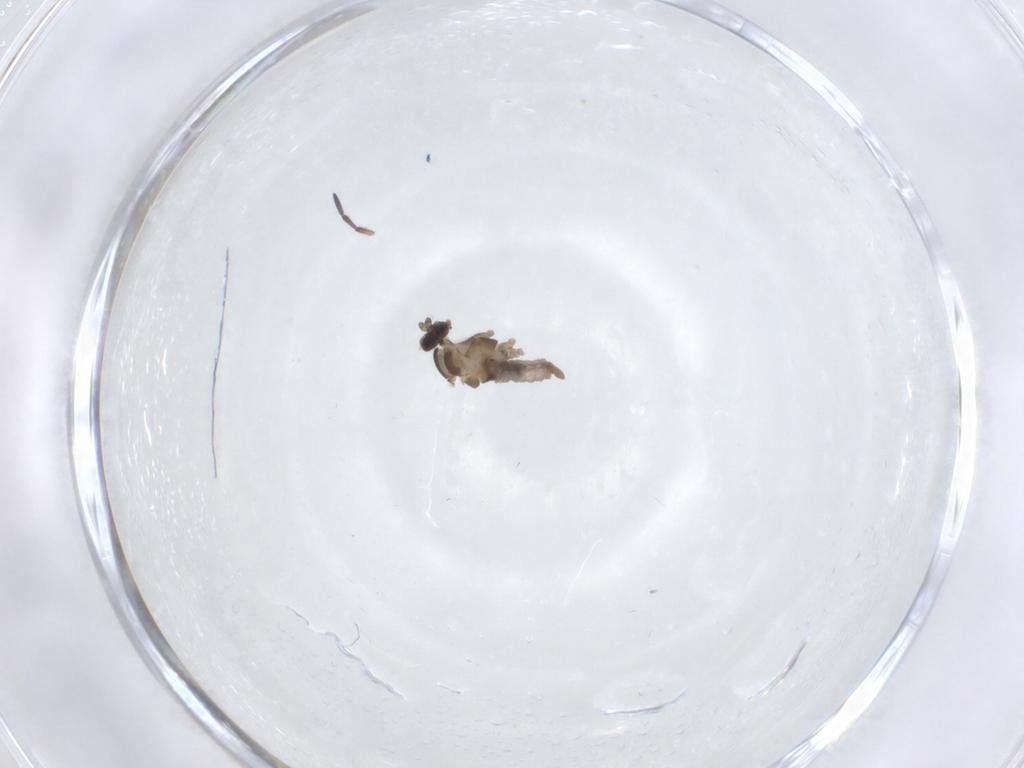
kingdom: Animalia
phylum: Arthropoda
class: Insecta
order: Diptera
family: Cecidomyiidae
